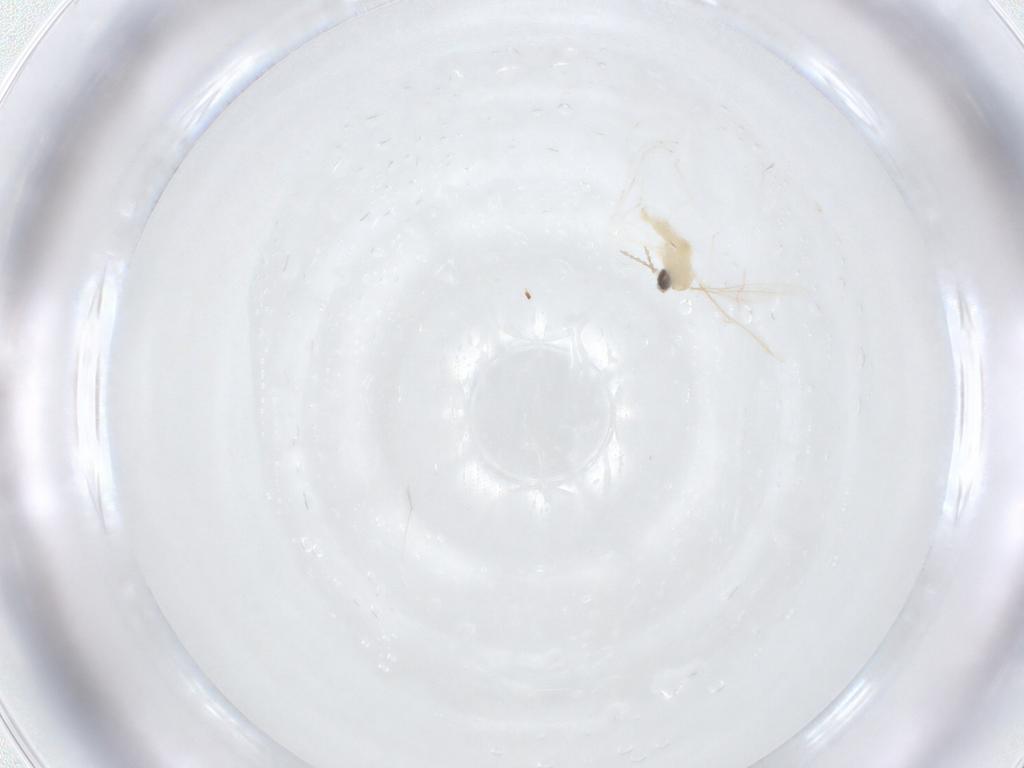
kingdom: Animalia
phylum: Arthropoda
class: Insecta
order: Diptera
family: Cecidomyiidae
